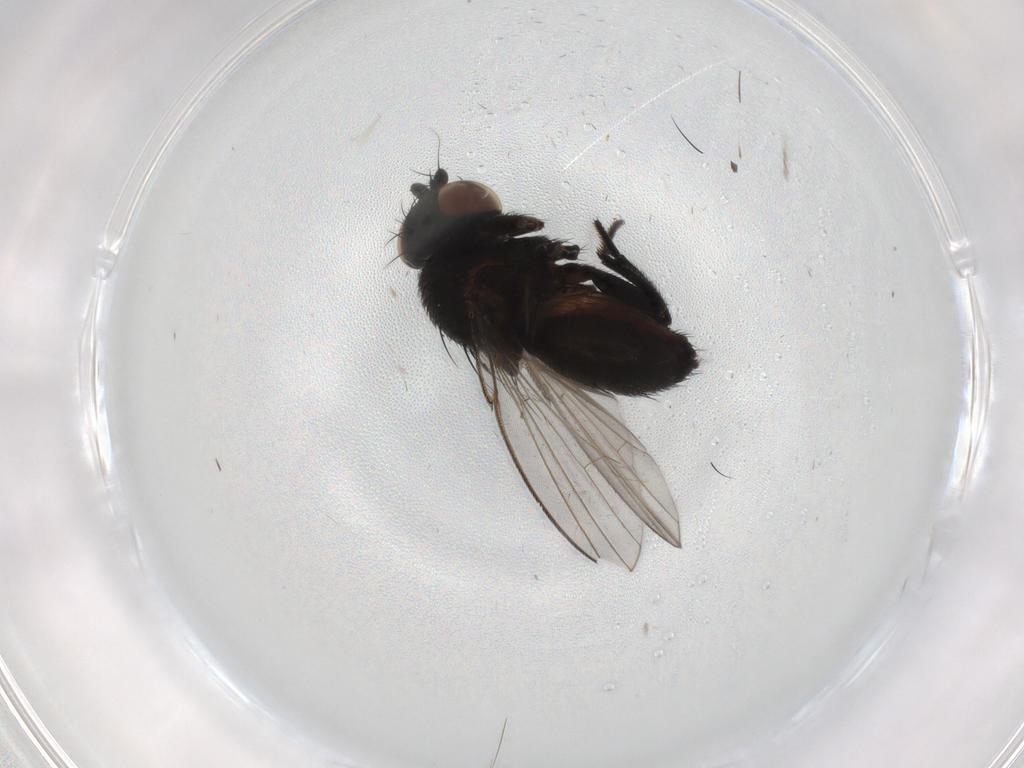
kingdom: Animalia
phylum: Arthropoda
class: Insecta
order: Diptera
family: Milichiidae
